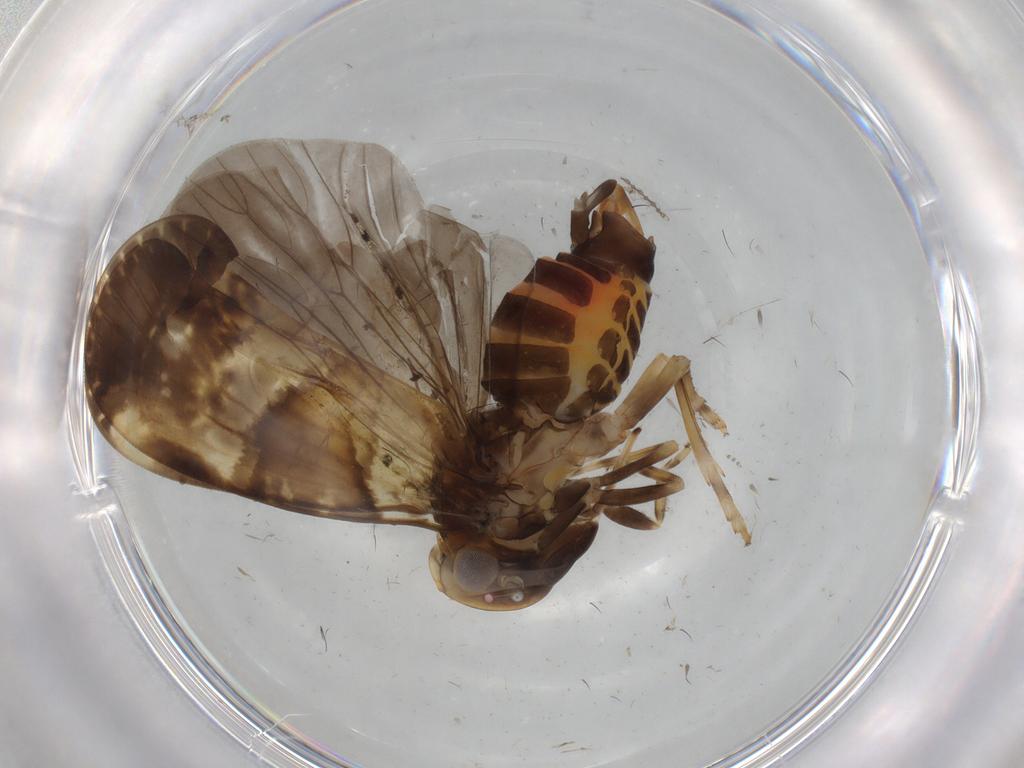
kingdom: Animalia
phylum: Arthropoda
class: Insecta
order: Hemiptera
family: Cixiidae
